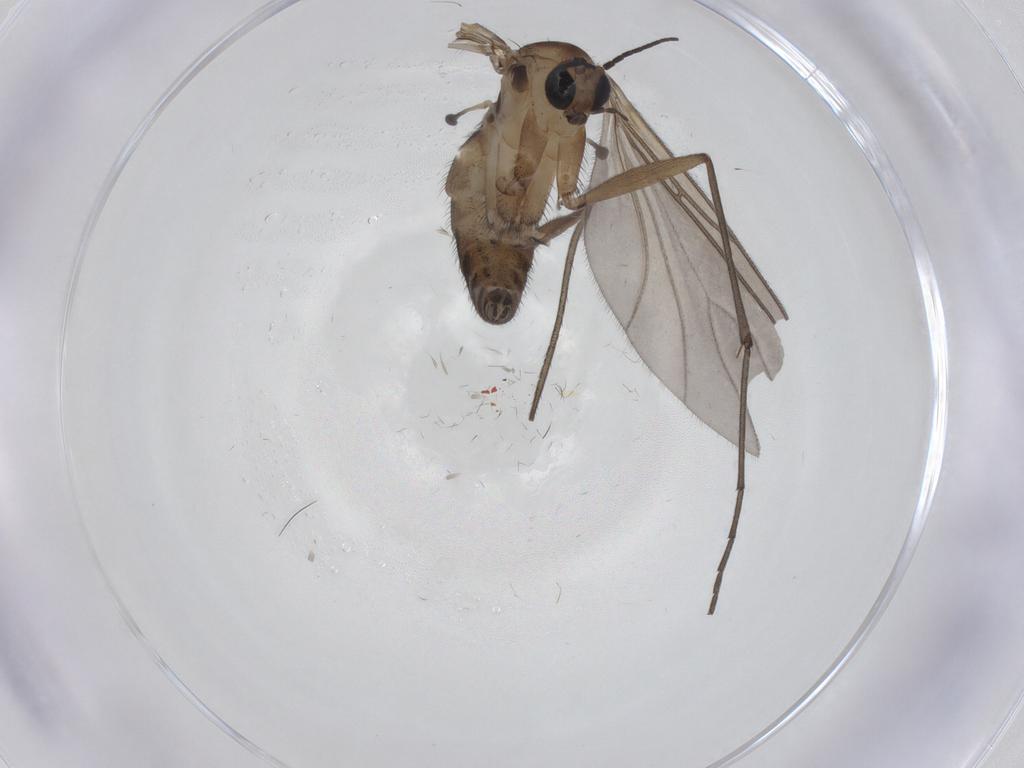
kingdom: Animalia
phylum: Arthropoda
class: Insecta
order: Diptera
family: Sciaridae
